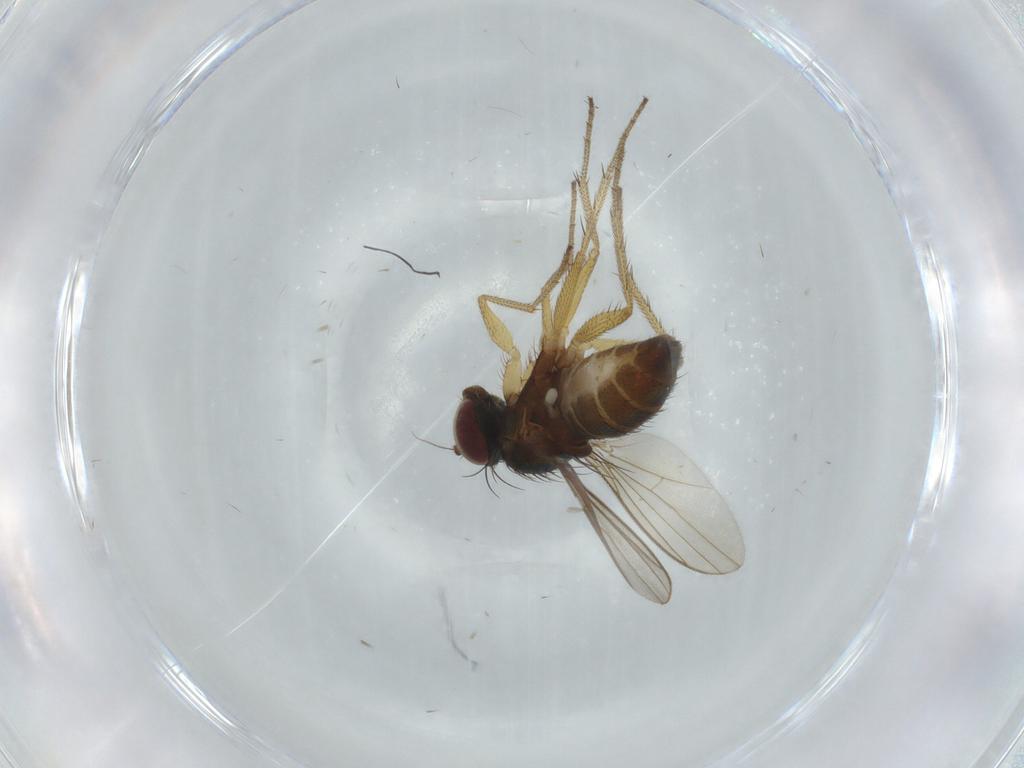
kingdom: Animalia
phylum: Arthropoda
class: Insecta
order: Diptera
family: Dolichopodidae
